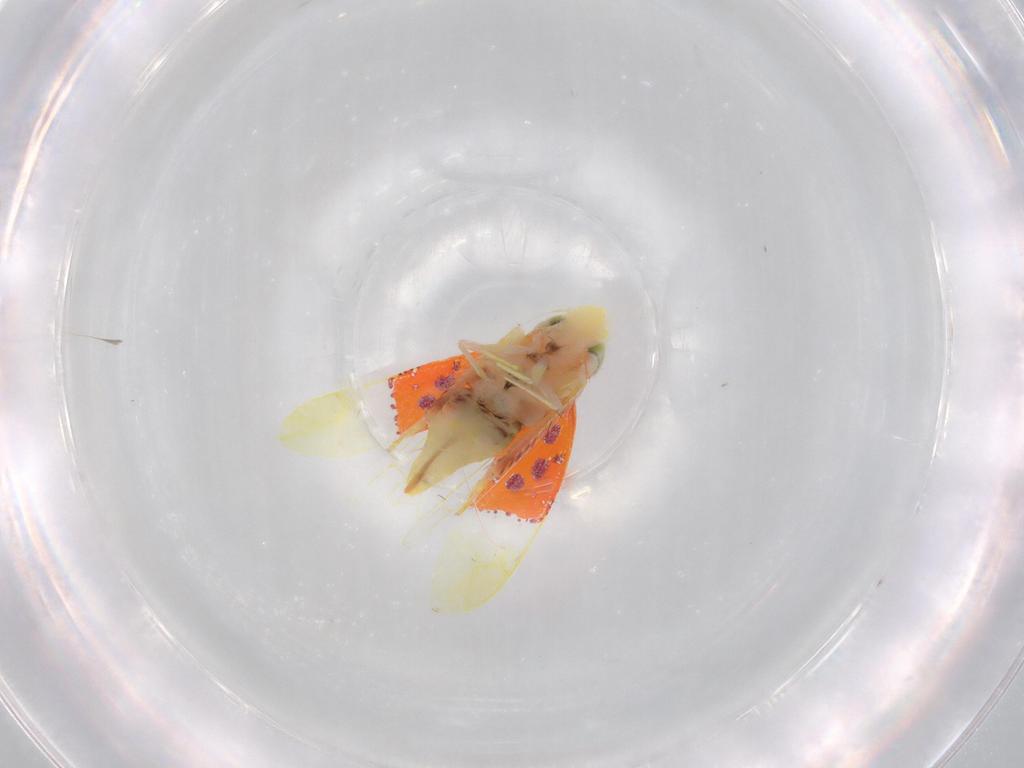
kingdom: Animalia
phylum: Arthropoda
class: Insecta
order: Hemiptera
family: Cicadellidae
